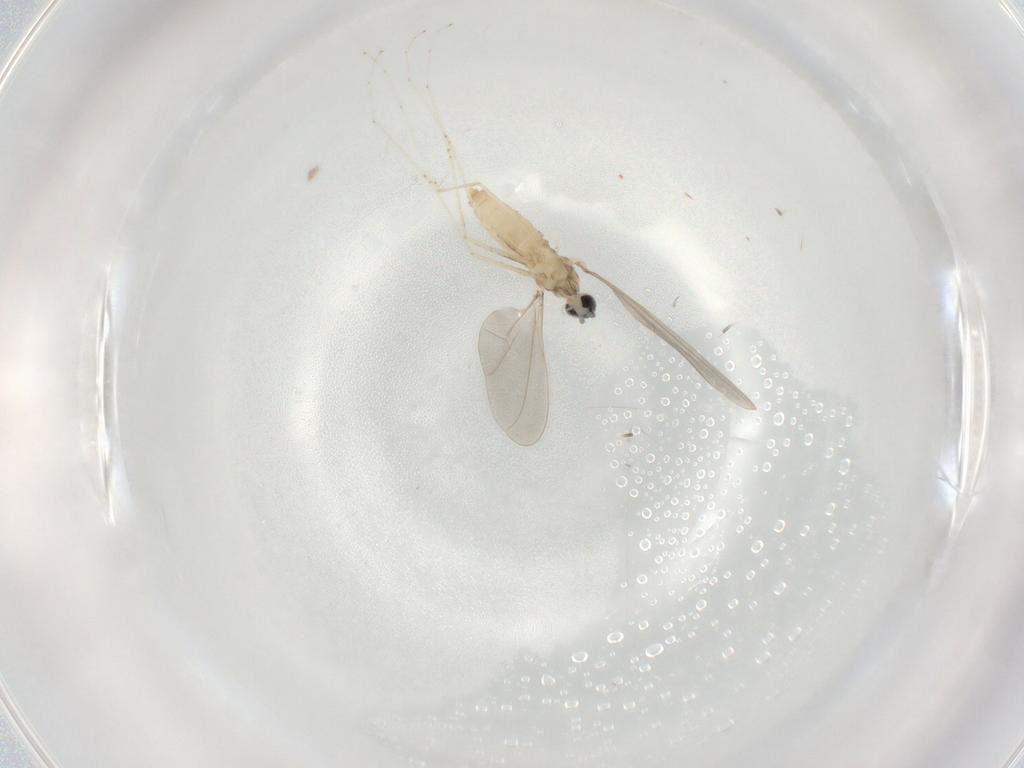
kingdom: Animalia
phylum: Arthropoda
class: Insecta
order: Diptera
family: Cecidomyiidae
